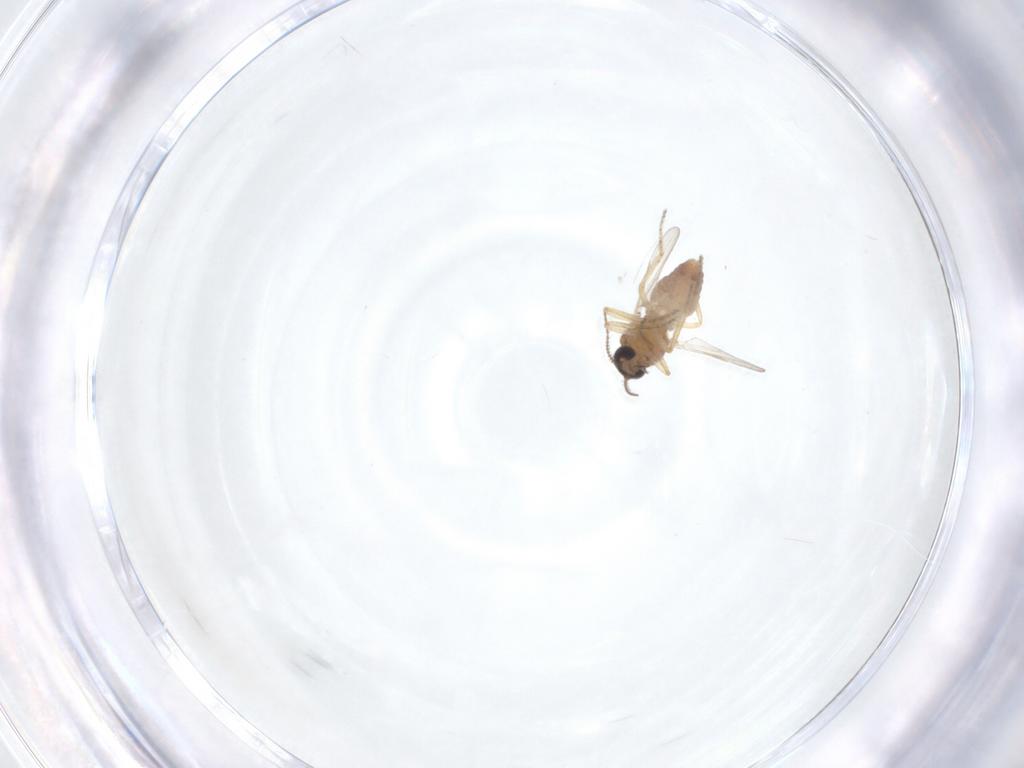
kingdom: Animalia
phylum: Arthropoda
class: Insecta
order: Diptera
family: Ceratopogonidae
